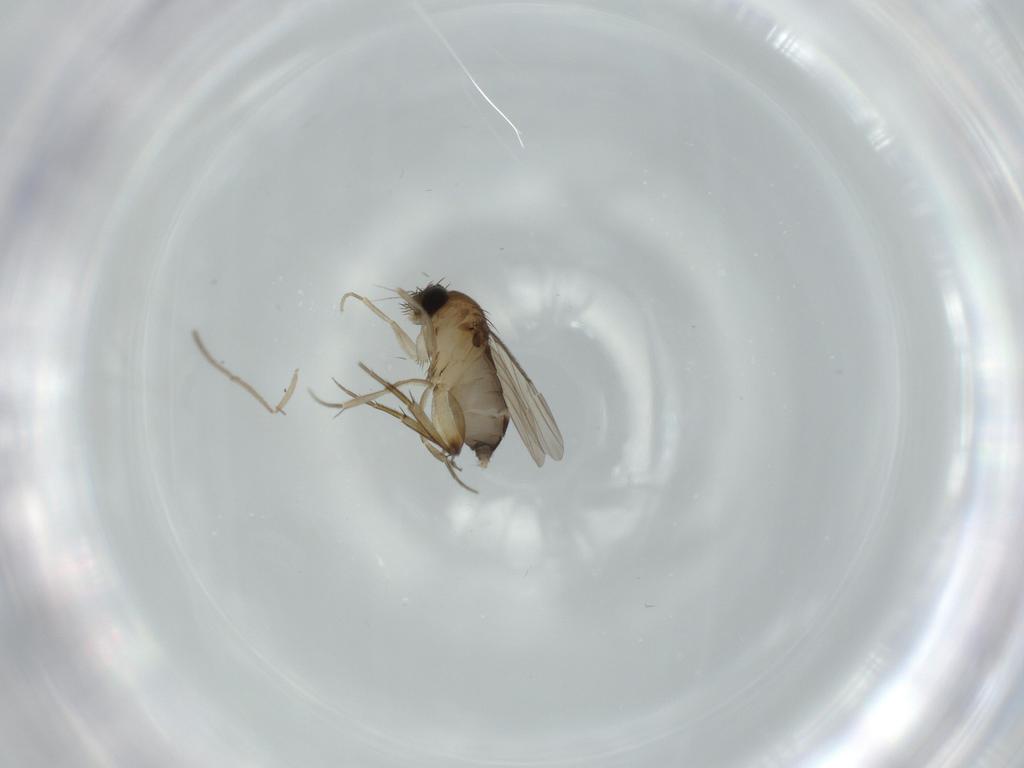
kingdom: Animalia
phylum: Arthropoda
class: Insecta
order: Diptera
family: Phoridae
